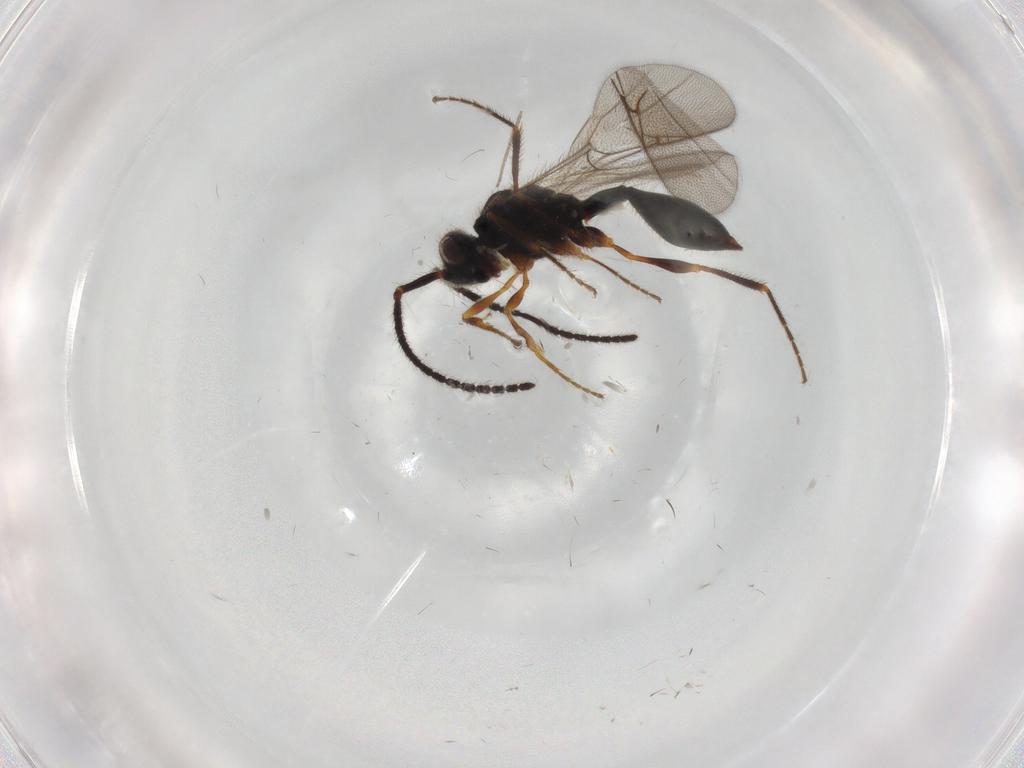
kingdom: Animalia
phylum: Arthropoda
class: Insecta
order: Hymenoptera
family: Diapriidae
